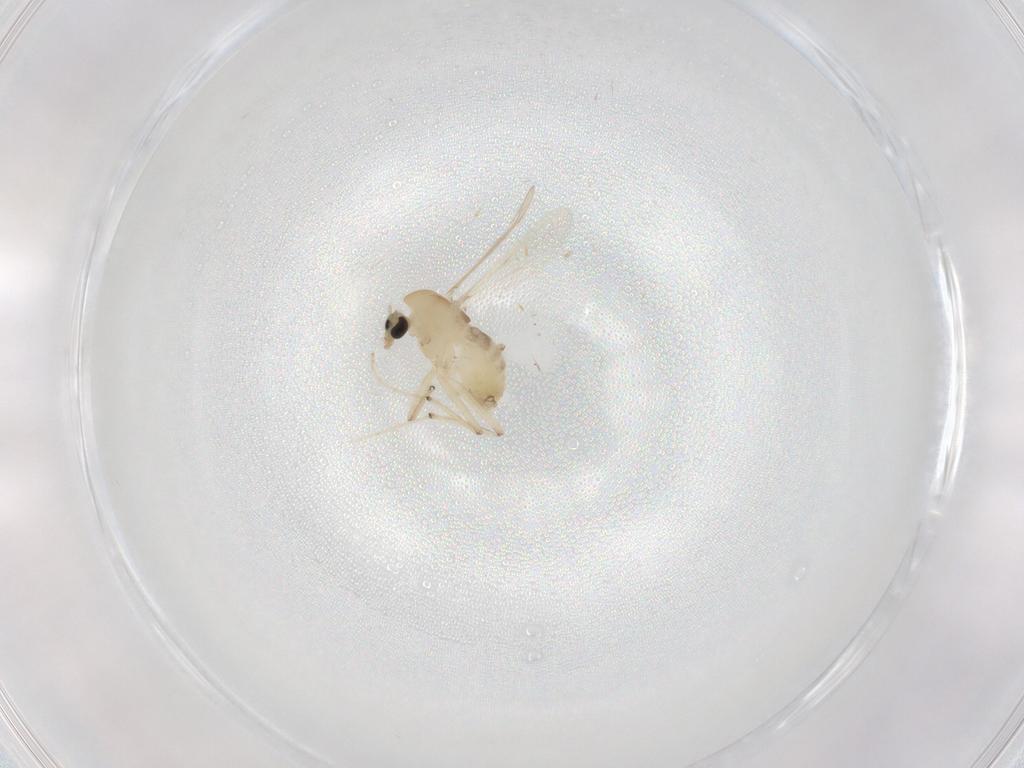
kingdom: Animalia
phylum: Arthropoda
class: Insecta
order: Diptera
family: Chironomidae
